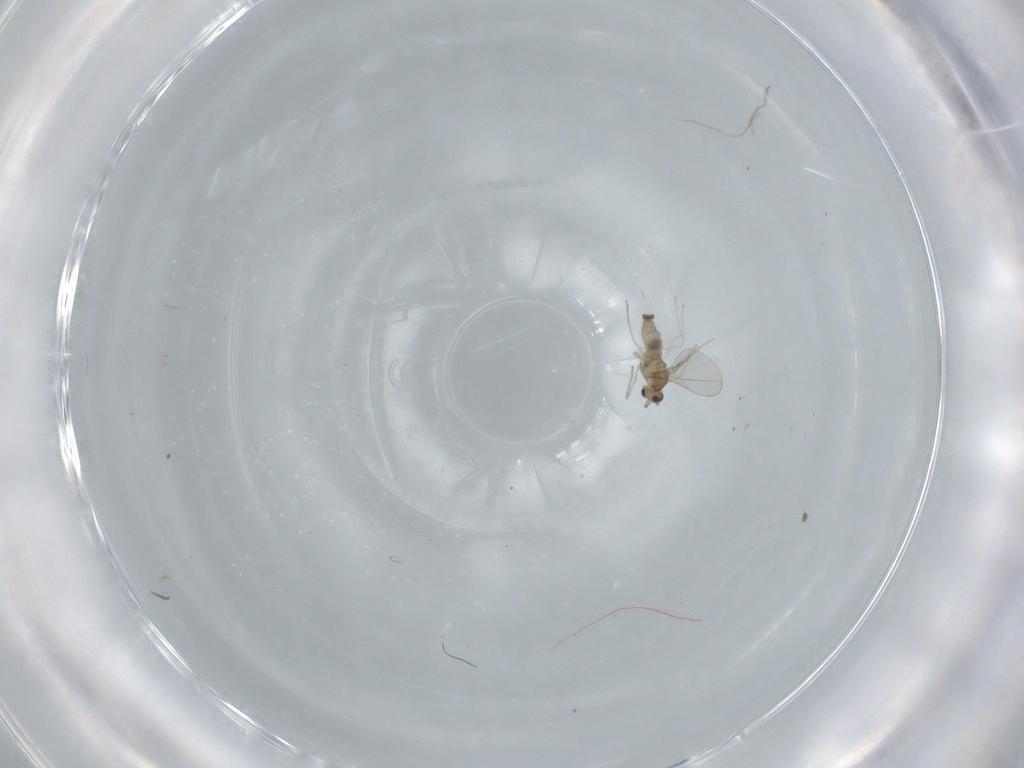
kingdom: Animalia
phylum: Arthropoda
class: Insecta
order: Diptera
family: Cecidomyiidae
